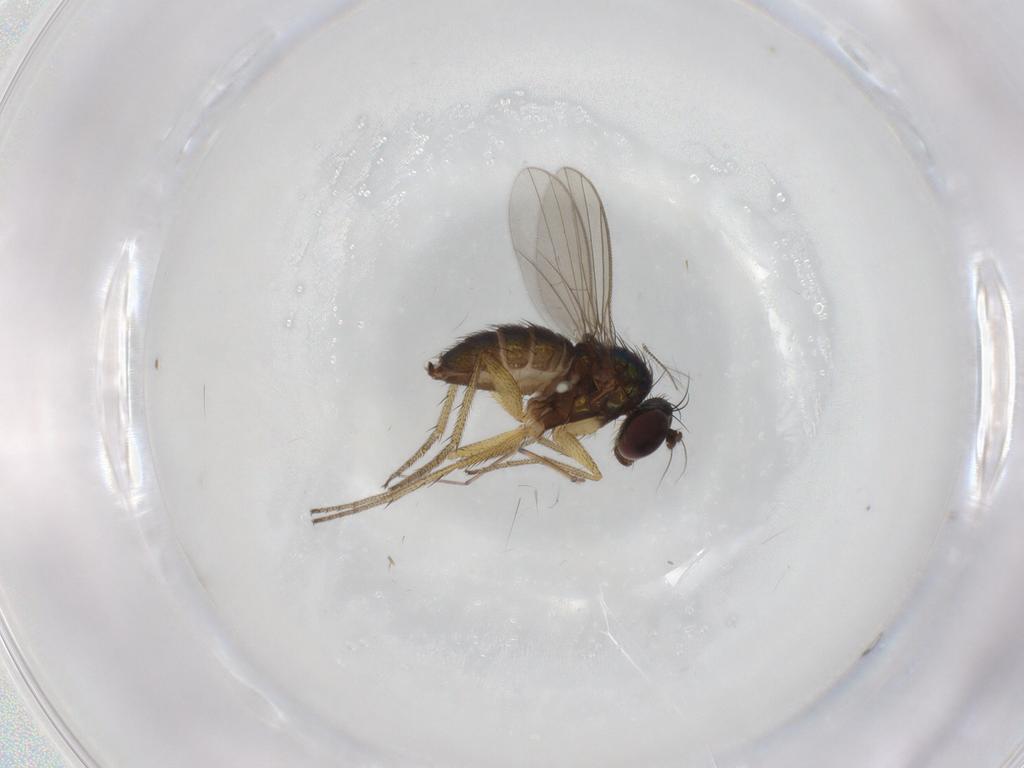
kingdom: Animalia
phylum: Arthropoda
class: Insecta
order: Diptera
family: Chironomidae
